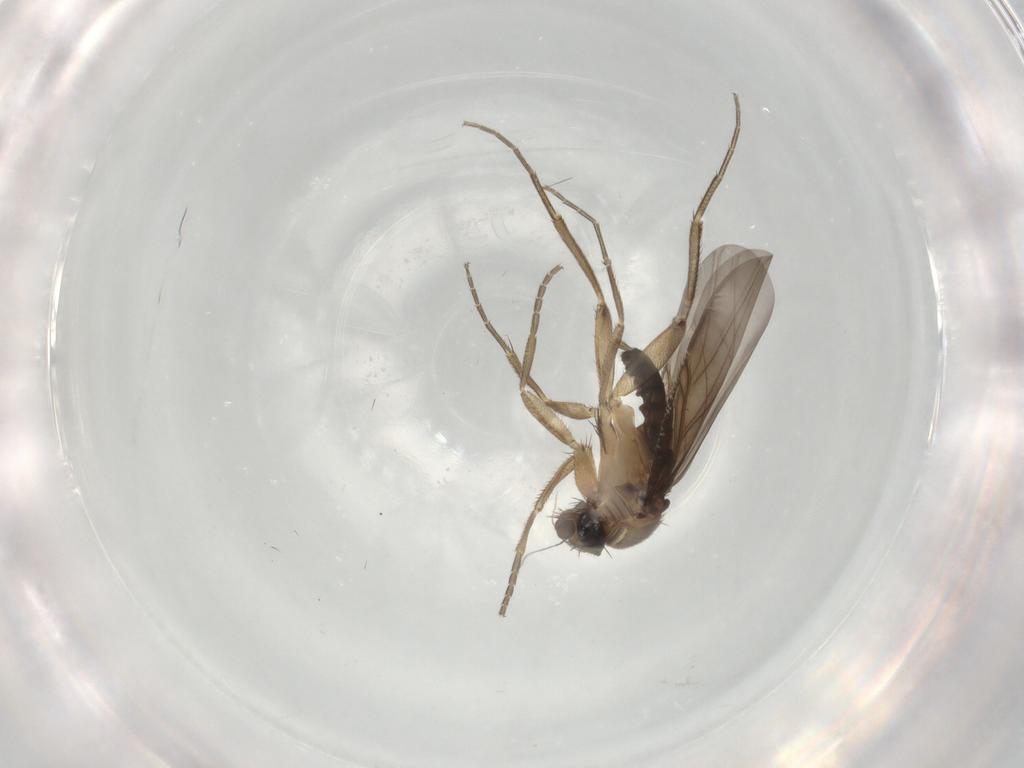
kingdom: Animalia
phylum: Arthropoda
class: Insecta
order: Diptera
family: Phoridae
